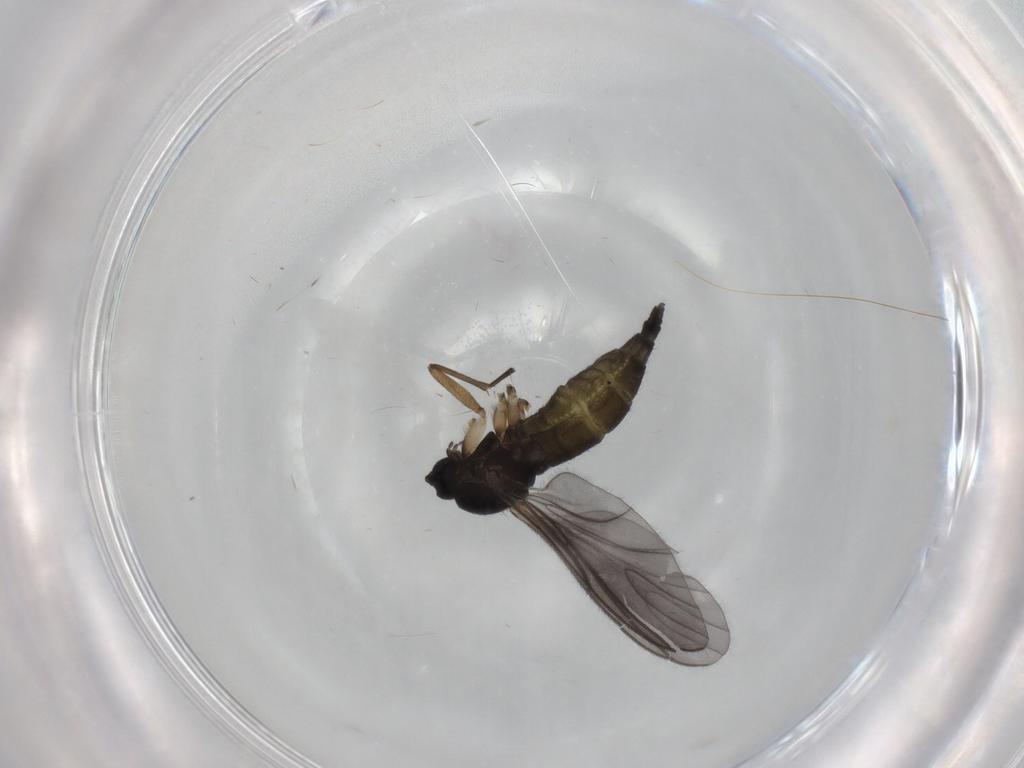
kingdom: Animalia
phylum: Arthropoda
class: Insecta
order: Diptera
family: Sciaridae
